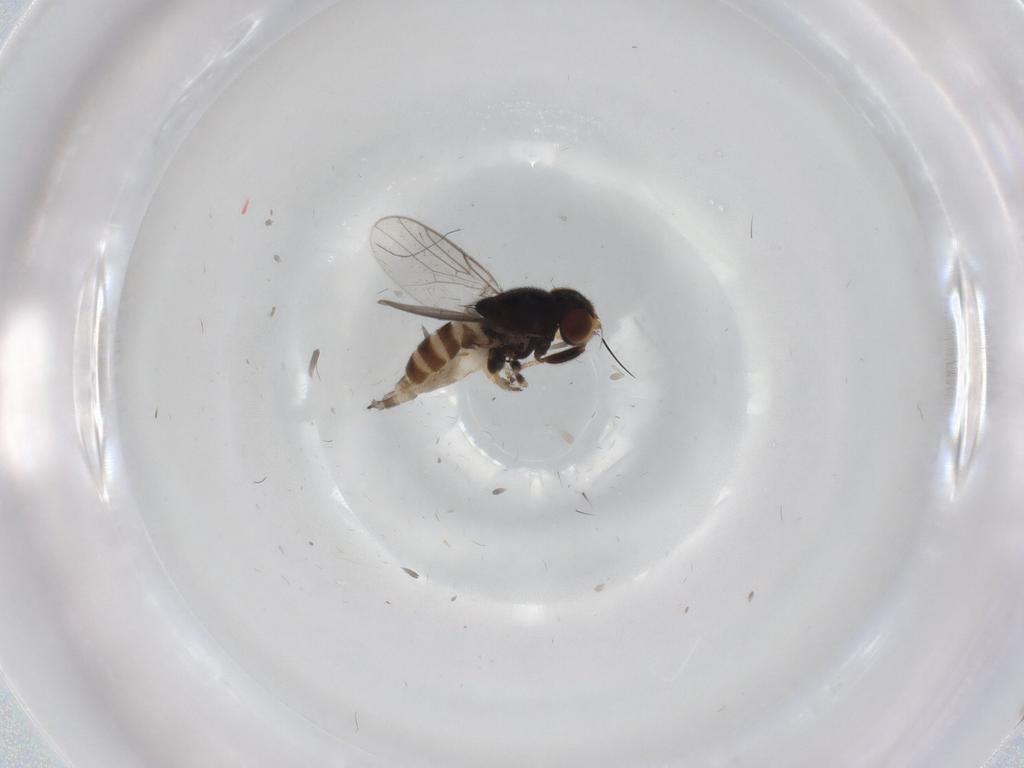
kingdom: Animalia
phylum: Arthropoda
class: Insecta
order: Diptera
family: Chloropidae
